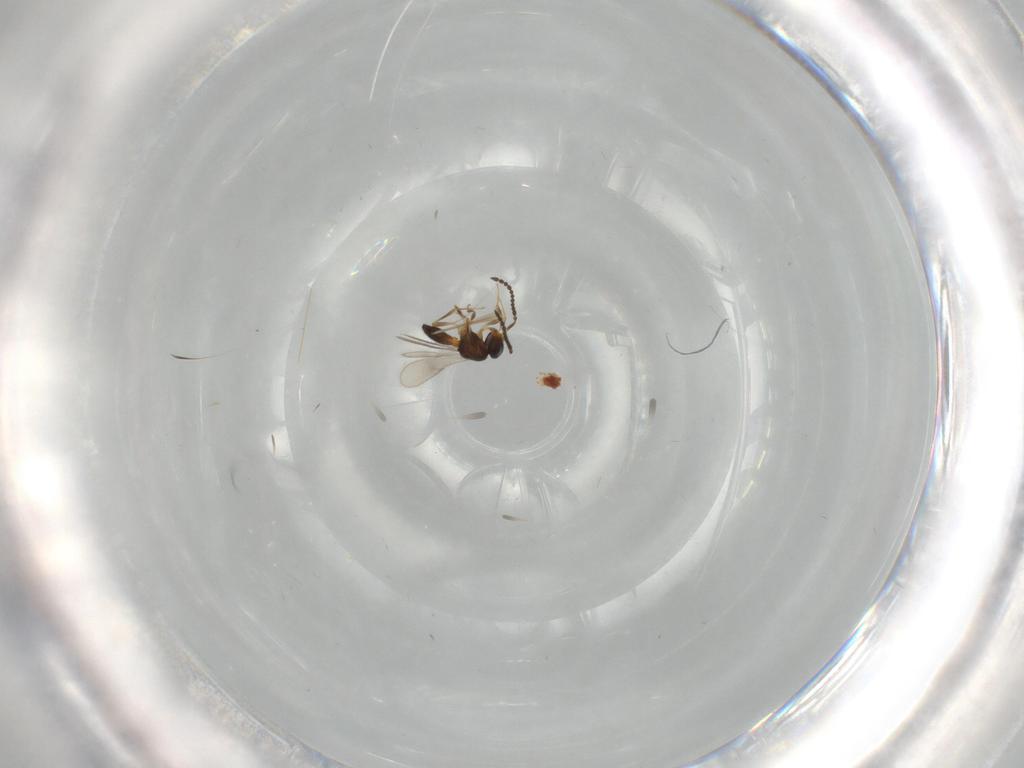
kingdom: Animalia
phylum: Arthropoda
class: Insecta
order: Hymenoptera
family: Scelionidae
